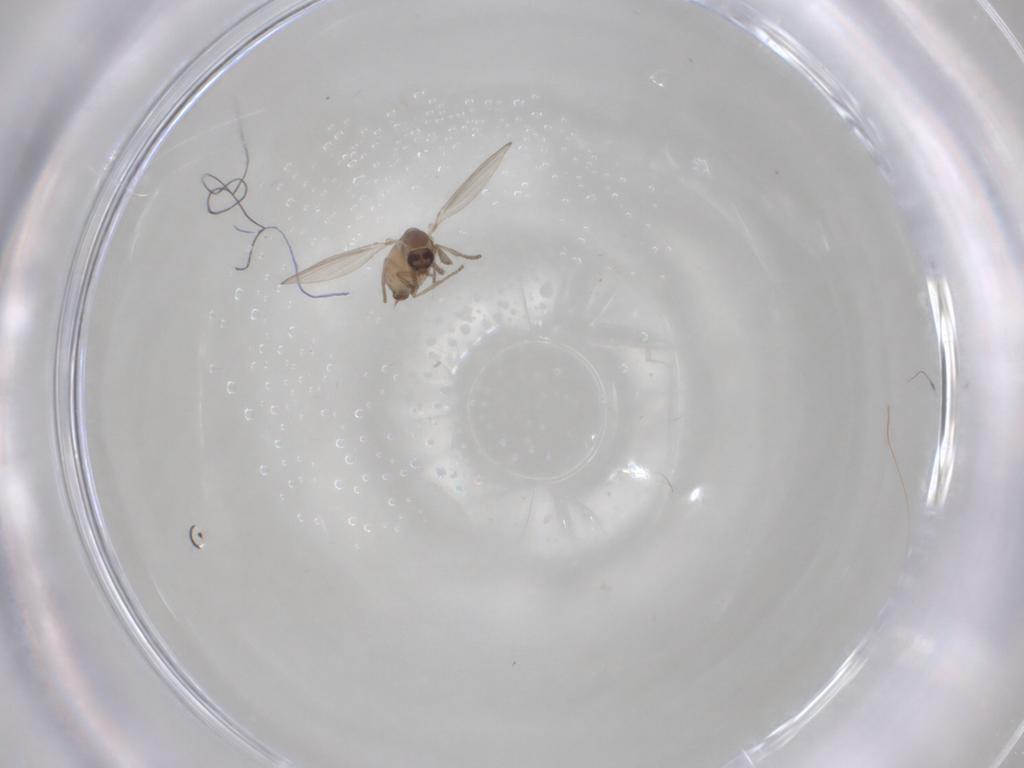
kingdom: Animalia
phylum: Arthropoda
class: Insecta
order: Diptera
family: Psychodidae
